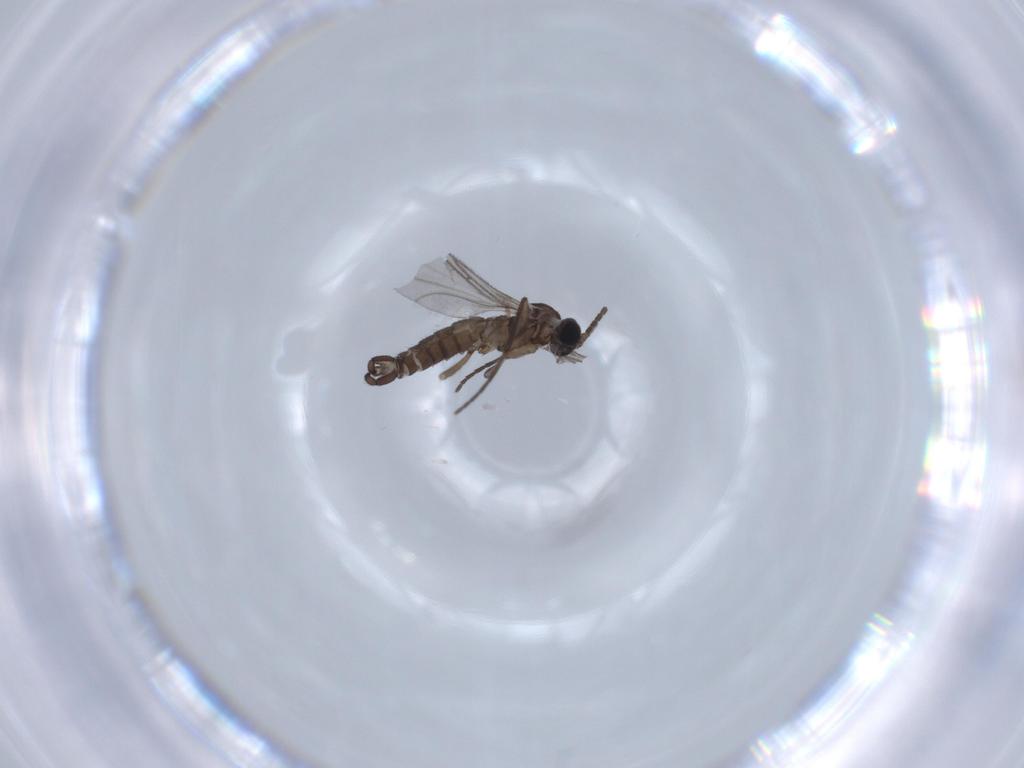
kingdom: Animalia
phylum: Arthropoda
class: Insecta
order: Diptera
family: Sciaridae
